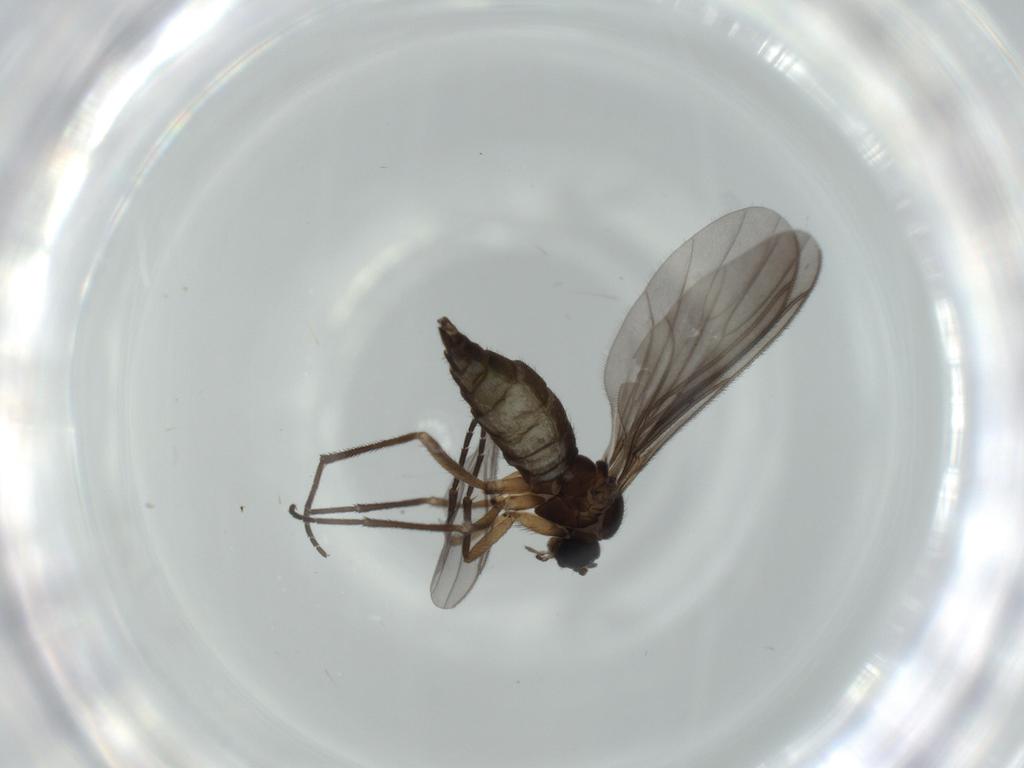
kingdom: Animalia
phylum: Arthropoda
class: Insecta
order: Diptera
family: Sciaridae
